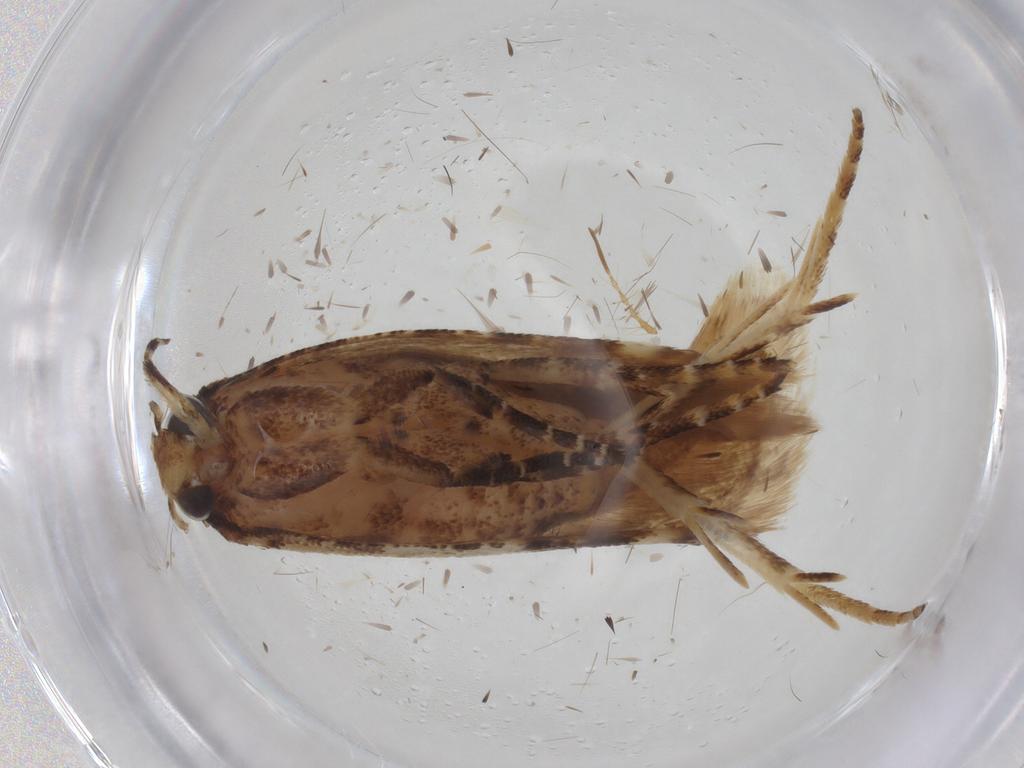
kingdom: Animalia
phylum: Arthropoda
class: Insecta
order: Lepidoptera
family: Gelechiidae
